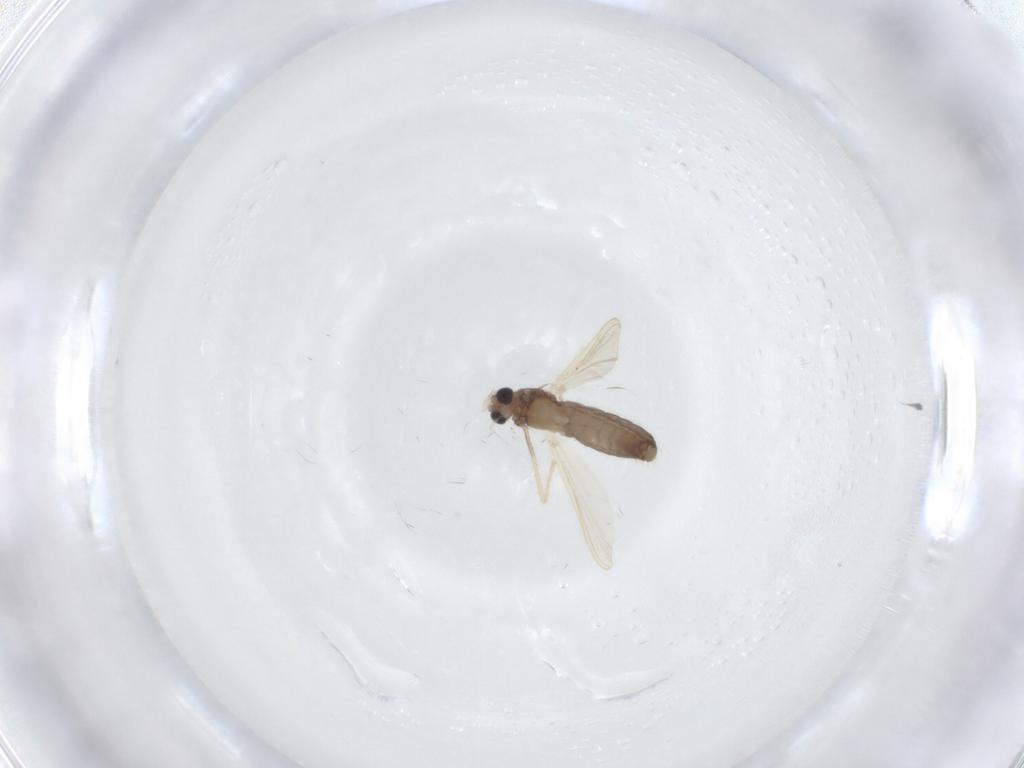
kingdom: Animalia
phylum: Arthropoda
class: Insecta
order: Diptera
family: Chironomidae
